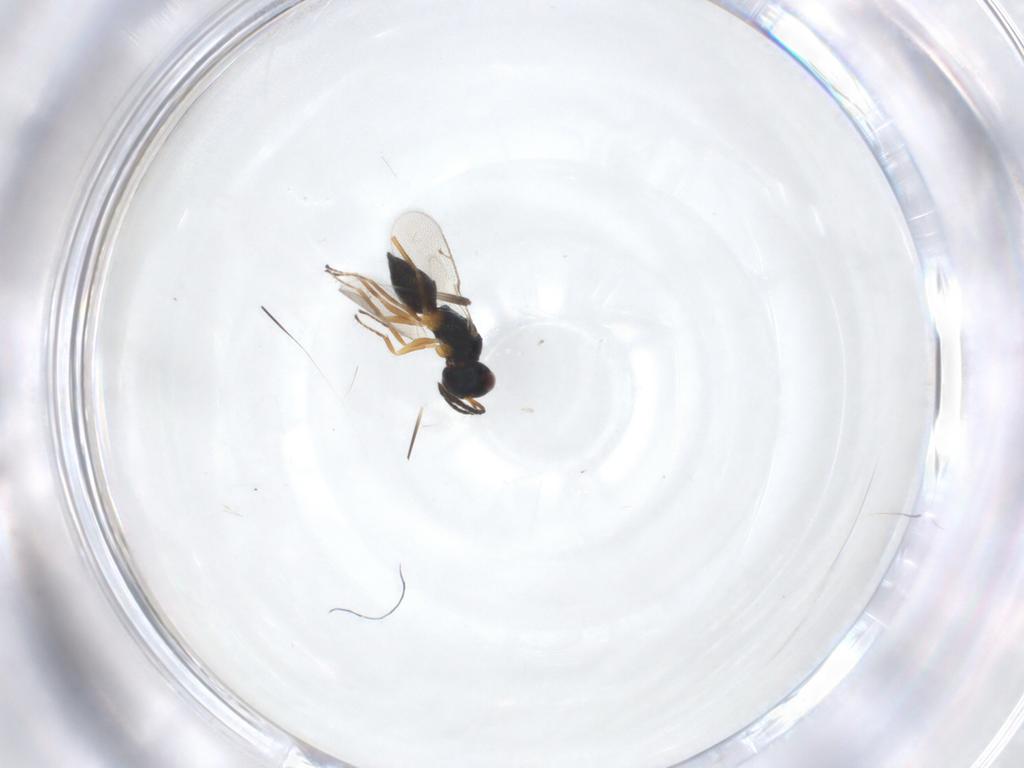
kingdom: Animalia
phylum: Arthropoda
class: Insecta
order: Hymenoptera
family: Pteromalidae
